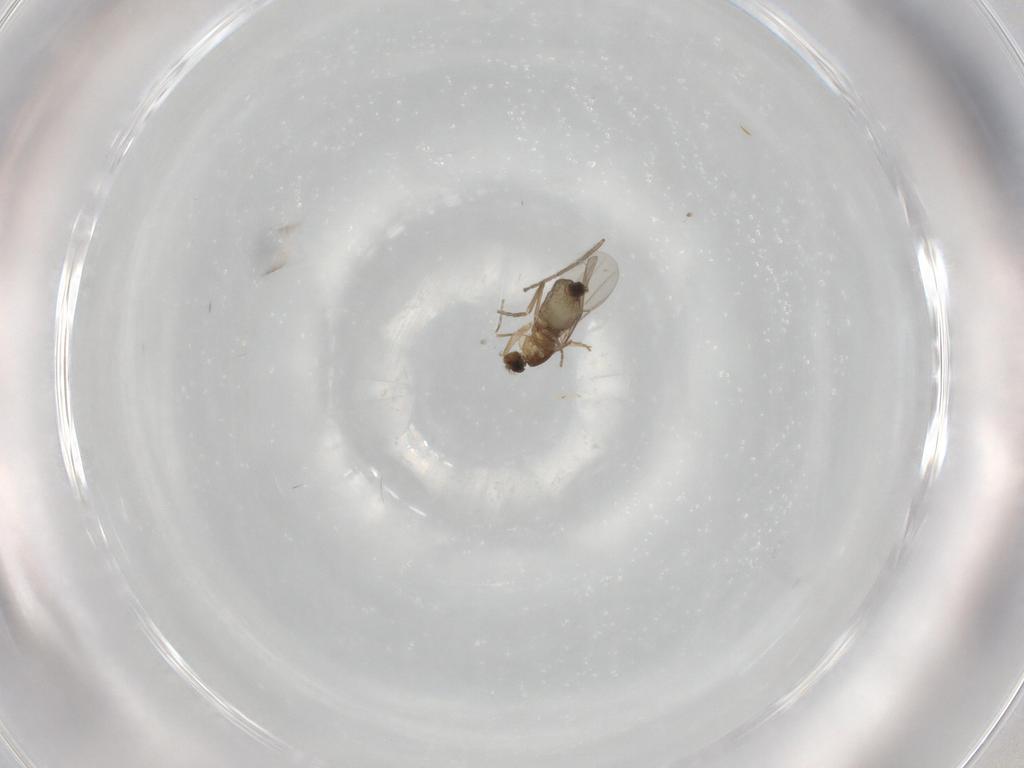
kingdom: Animalia
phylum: Arthropoda
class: Insecta
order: Diptera
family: Phoridae
